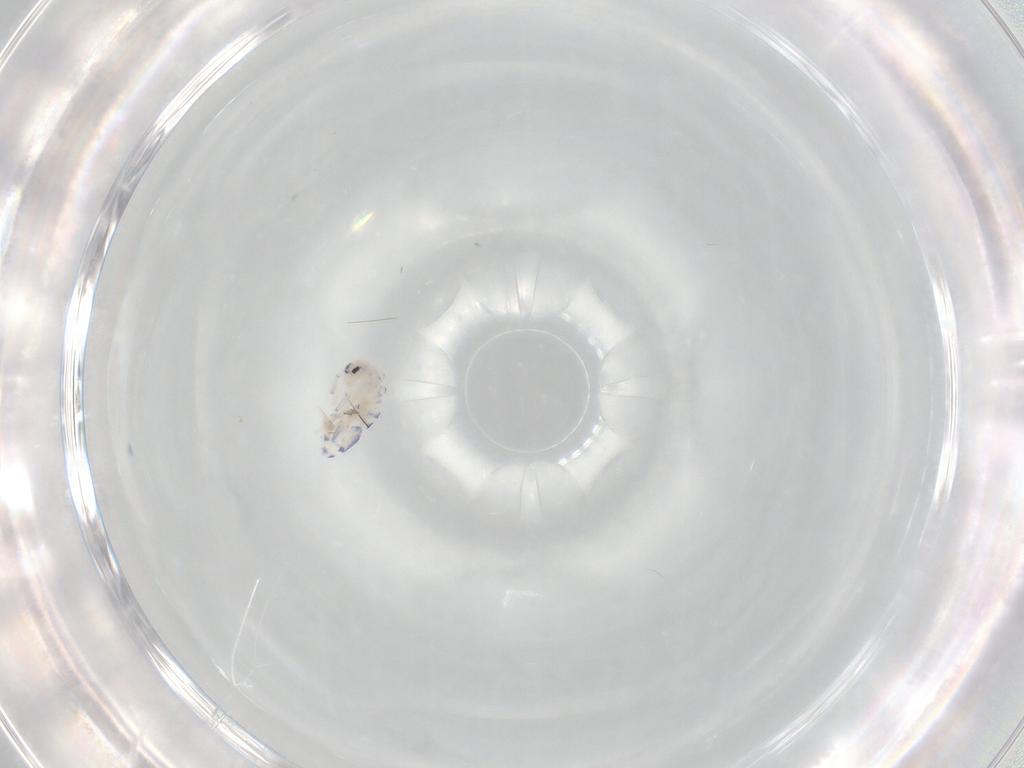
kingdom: Animalia
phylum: Arthropoda
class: Collembola
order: Entomobryomorpha
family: Entomobryidae
